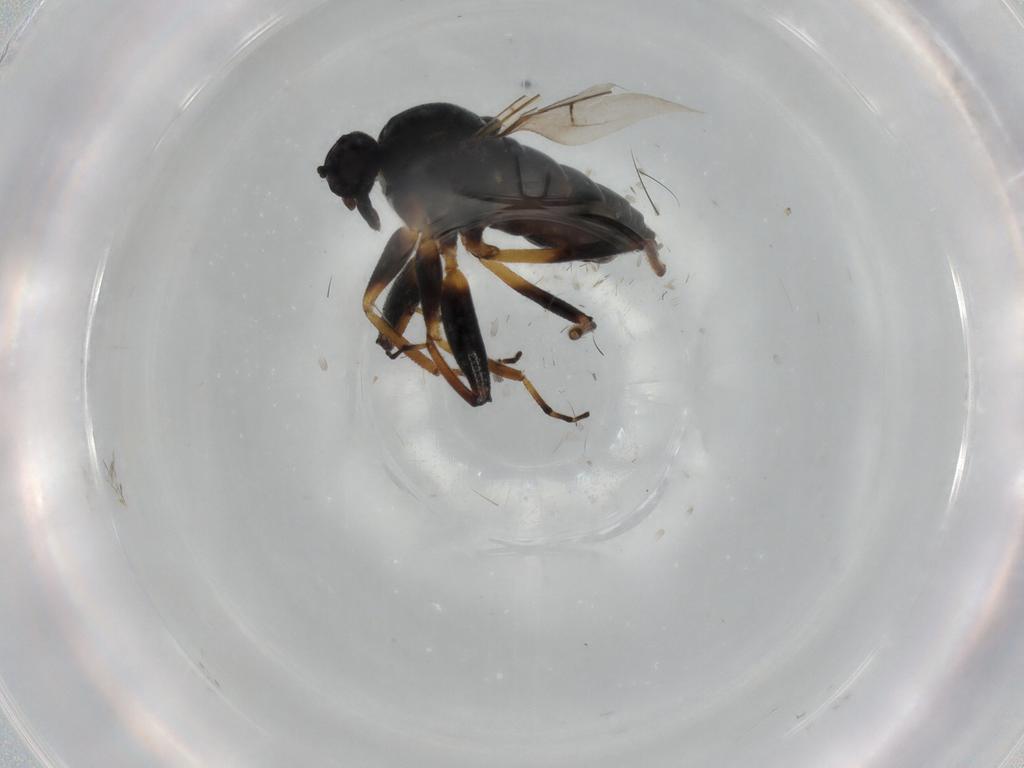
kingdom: Animalia
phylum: Arthropoda
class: Insecta
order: Diptera
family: Hybotidae
